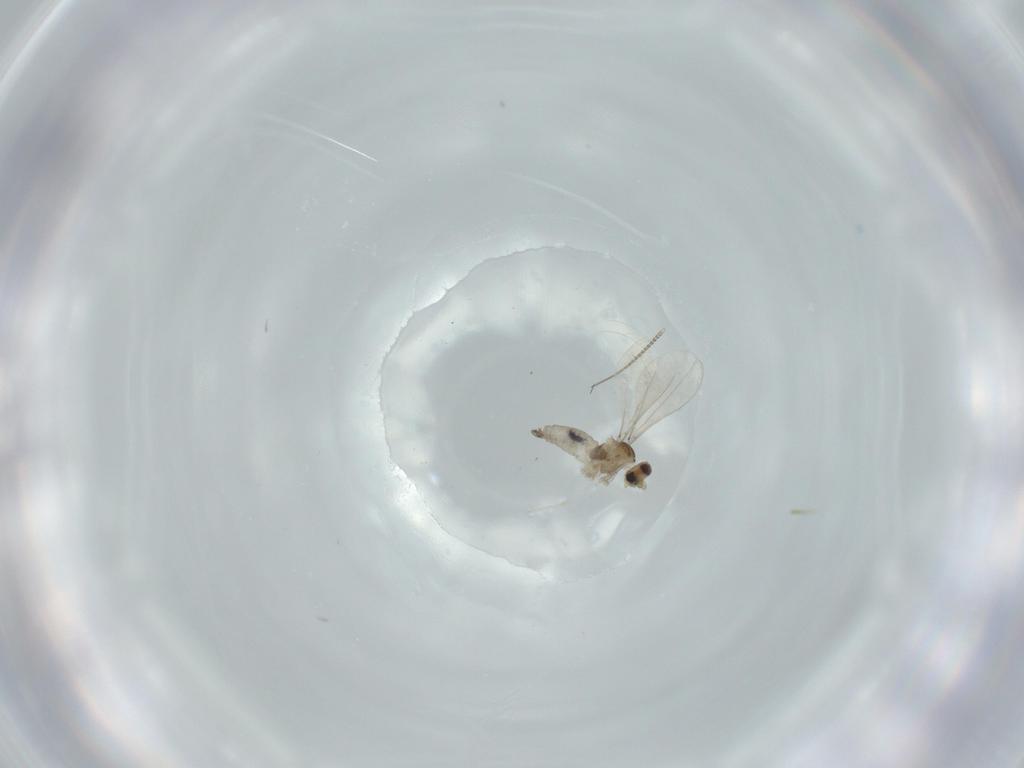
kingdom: Animalia
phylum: Arthropoda
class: Insecta
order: Diptera
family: Cecidomyiidae
